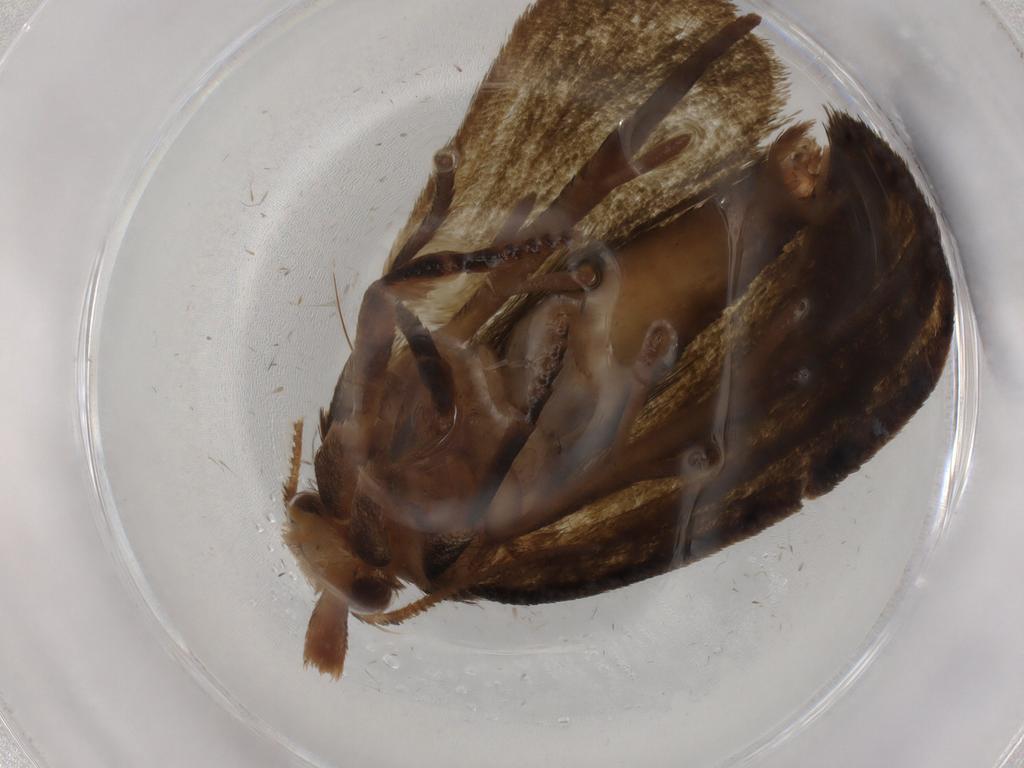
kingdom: Animalia
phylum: Arthropoda
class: Insecta
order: Lepidoptera
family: Geometridae
